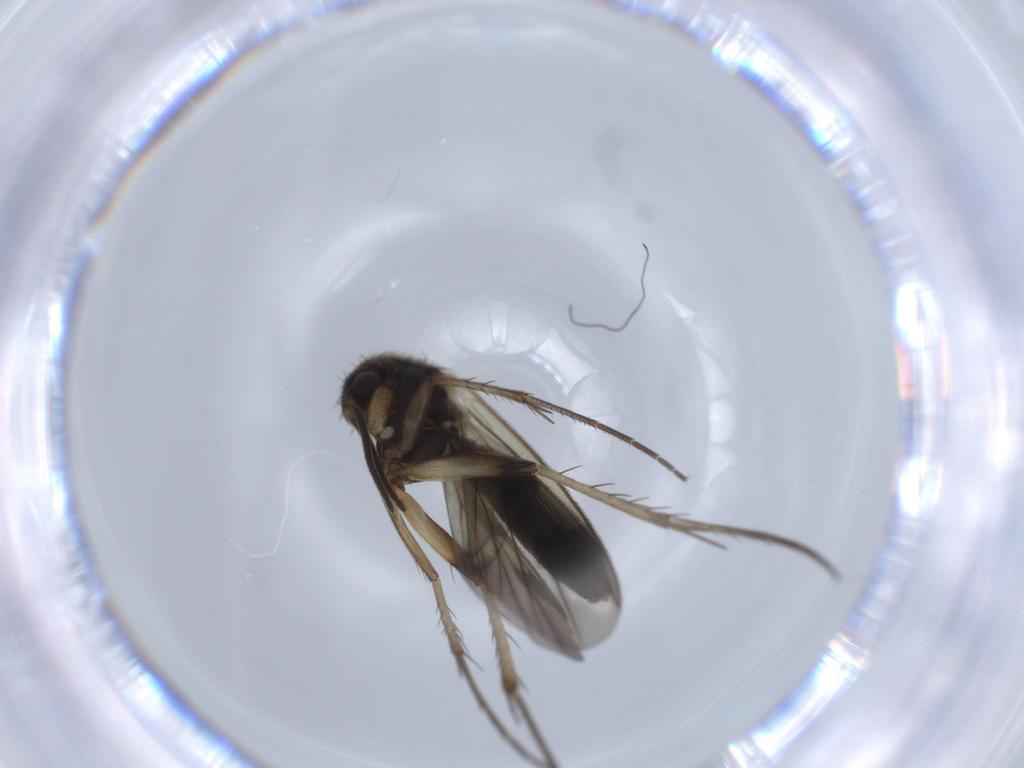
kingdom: Animalia
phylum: Arthropoda
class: Insecta
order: Diptera
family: Mycetophilidae
